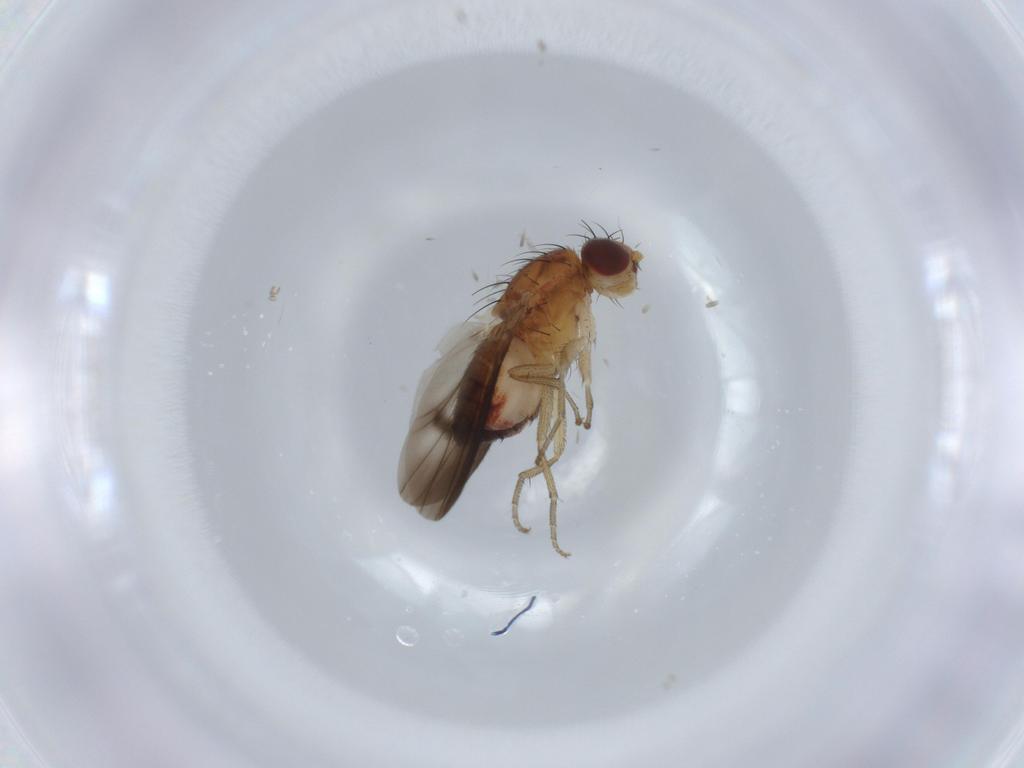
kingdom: Animalia
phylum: Arthropoda
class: Insecta
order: Diptera
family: Heleomyzidae
